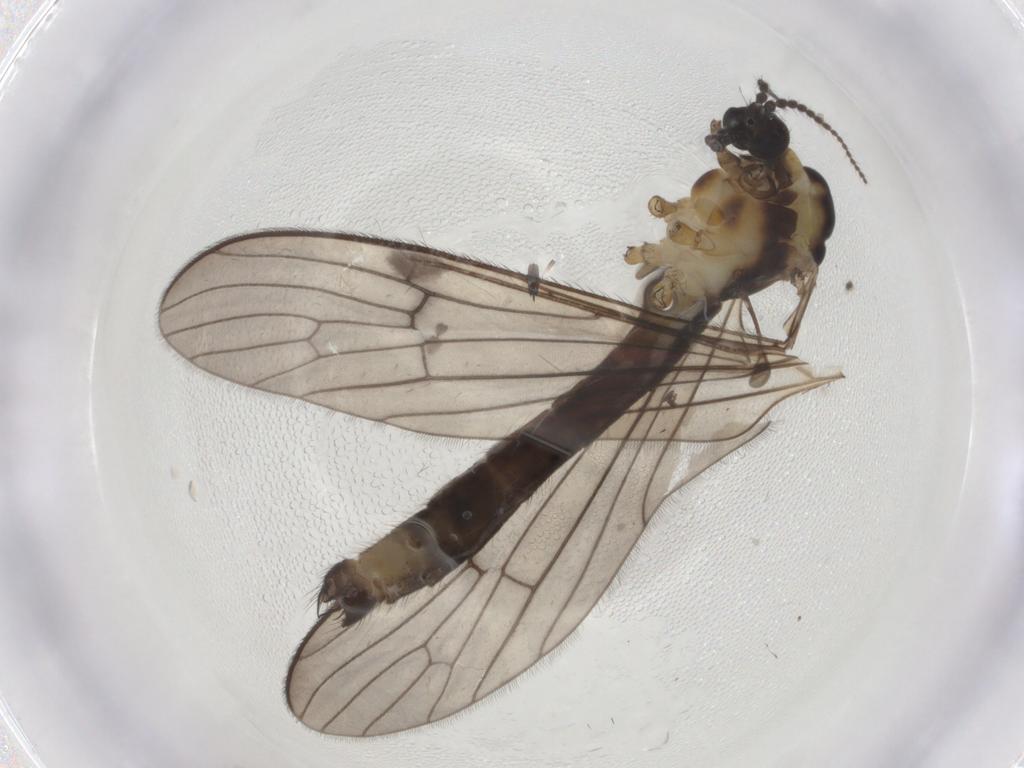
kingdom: Animalia
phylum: Arthropoda
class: Insecta
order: Diptera
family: Limoniidae
